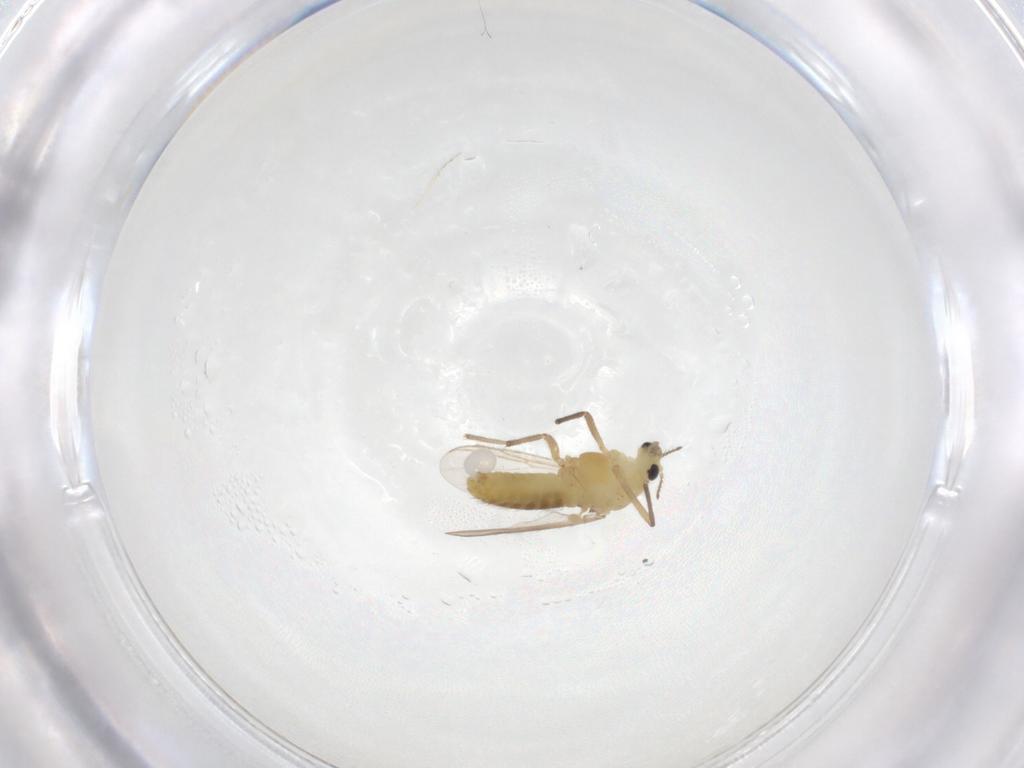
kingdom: Animalia
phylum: Arthropoda
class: Insecta
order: Diptera
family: Chironomidae
